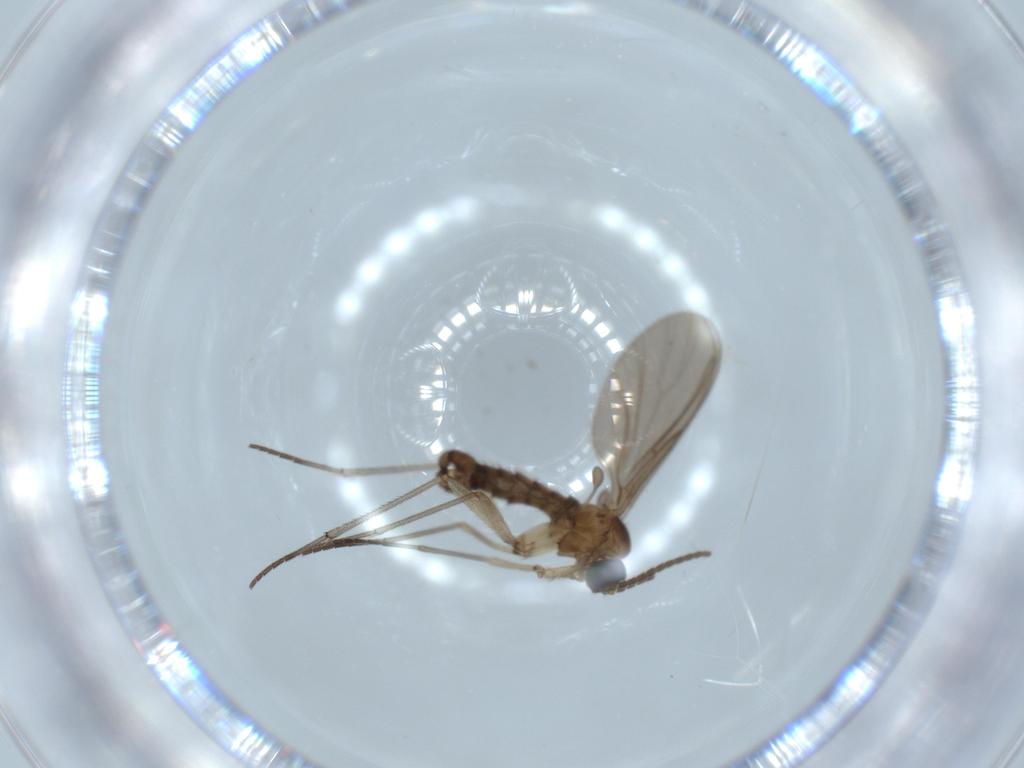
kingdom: Animalia
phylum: Arthropoda
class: Insecta
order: Diptera
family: Sciaridae
